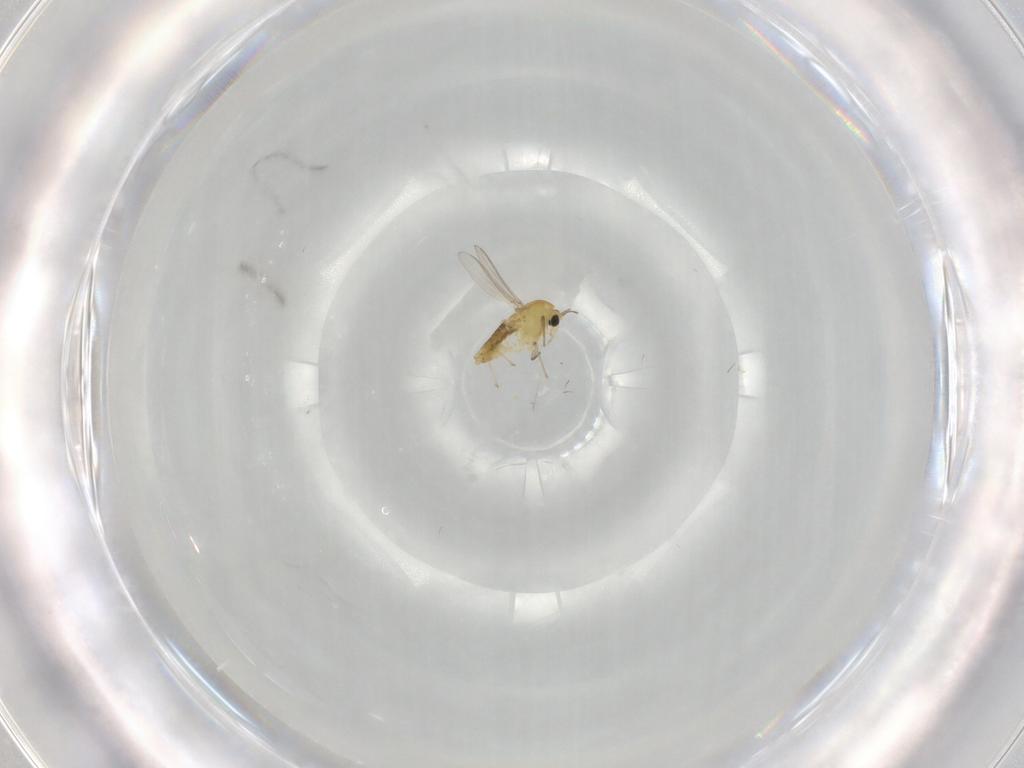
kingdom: Animalia
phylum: Arthropoda
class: Insecta
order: Diptera
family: Chironomidae
